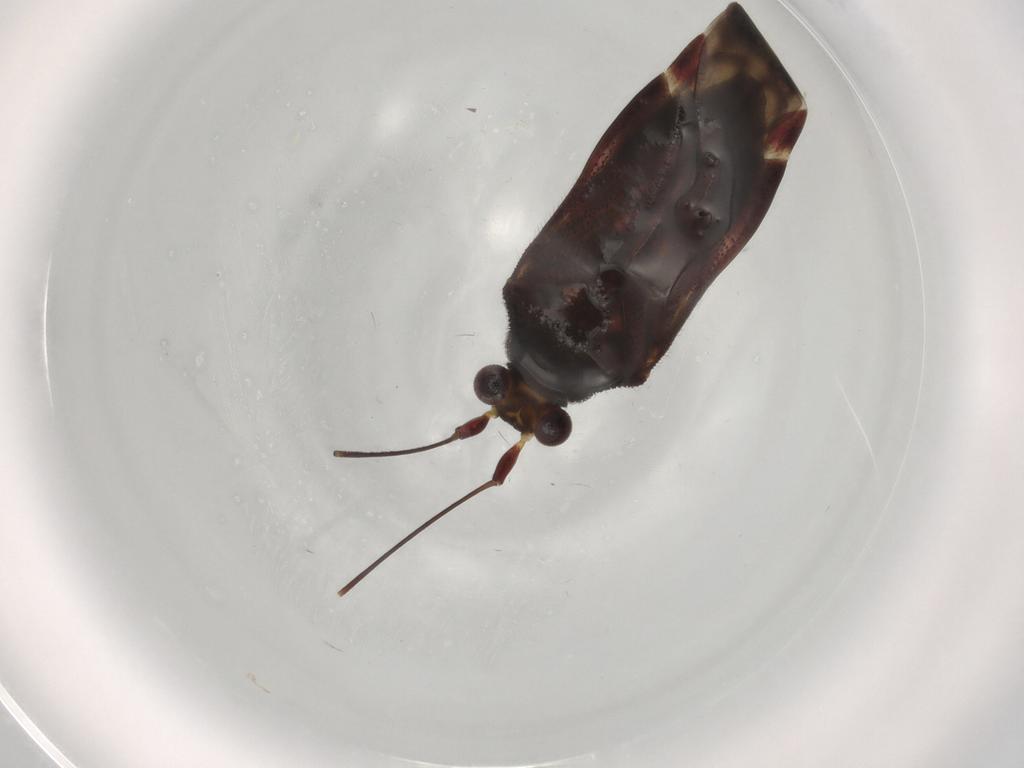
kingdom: Animalia
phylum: Arthropoda
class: Insecta
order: Hemiptera
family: Miridae
